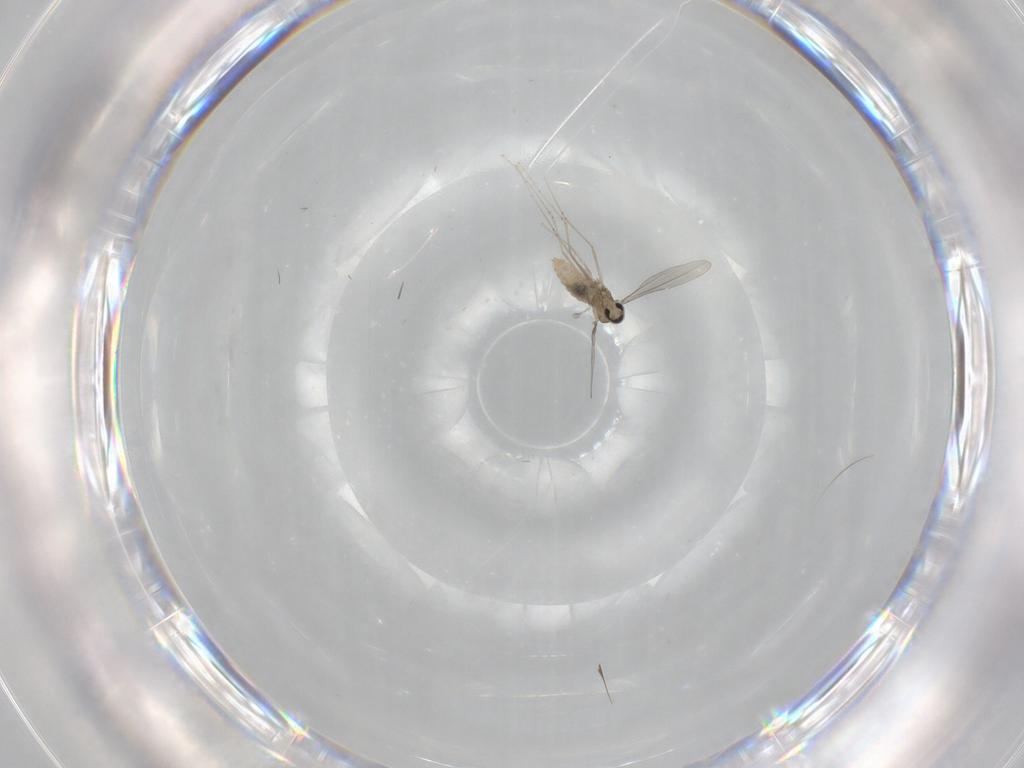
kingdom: Animalia
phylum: Arthropoda
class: Insecta
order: Diptera
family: Cecidomyiidae
